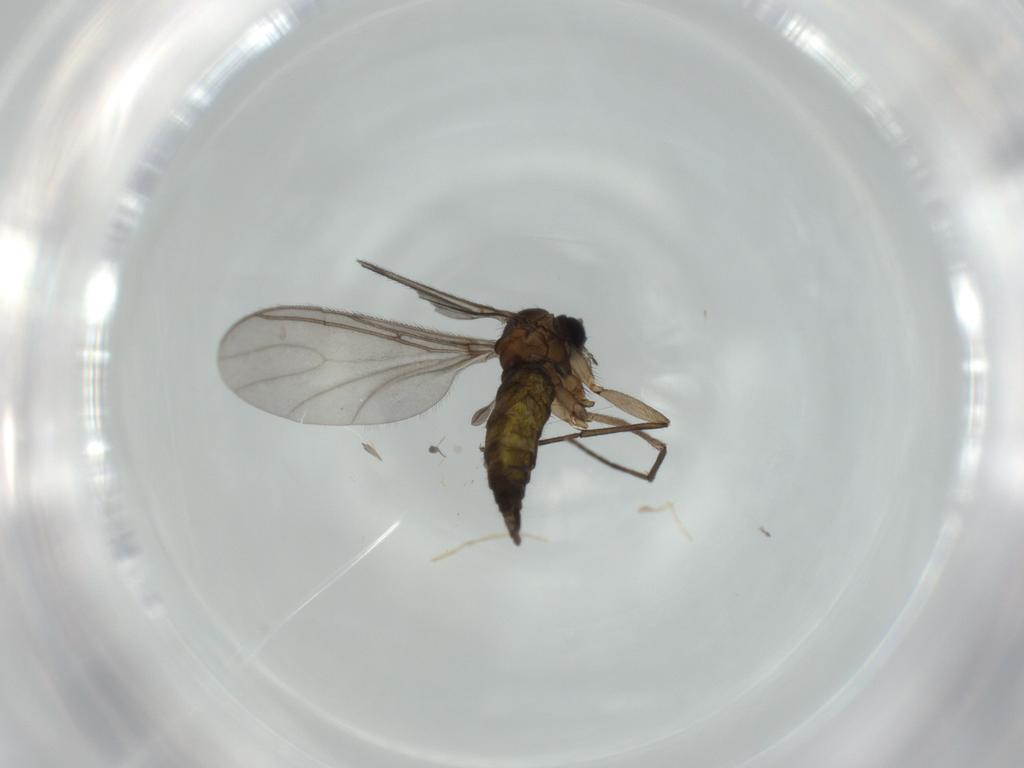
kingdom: Animalia
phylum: Arthropoda
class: Insecta
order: Diptera
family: Sciaridae
